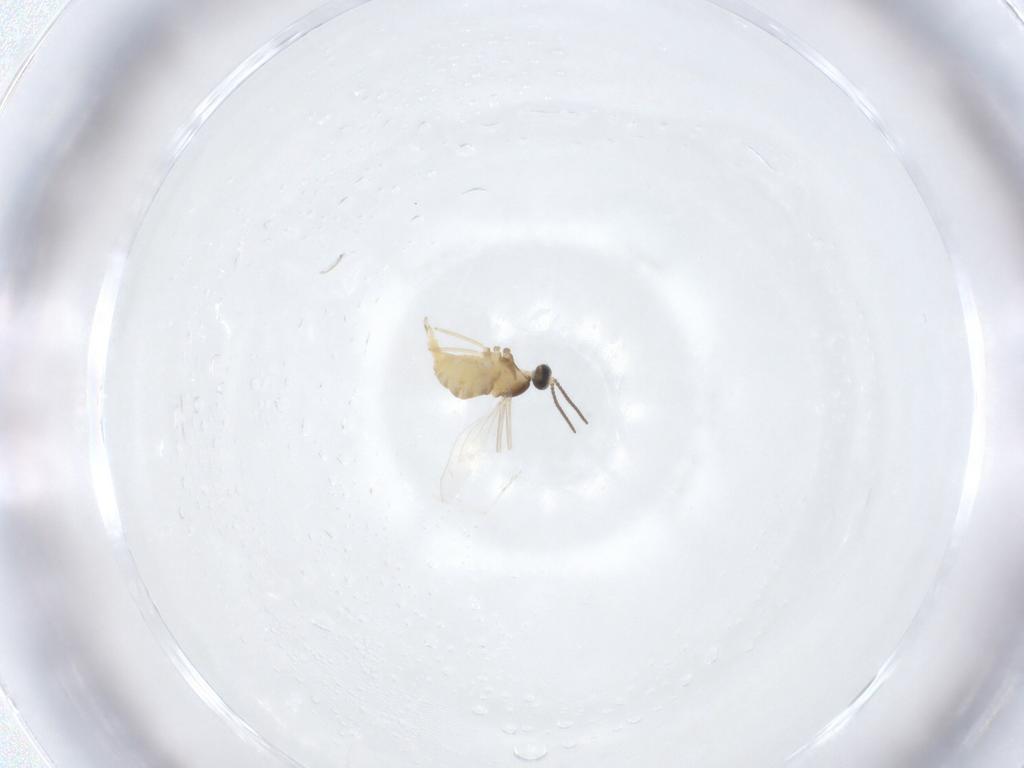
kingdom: Animalia
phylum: Arthropoda
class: Insecta
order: Diptera
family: Cecidomyiidae
